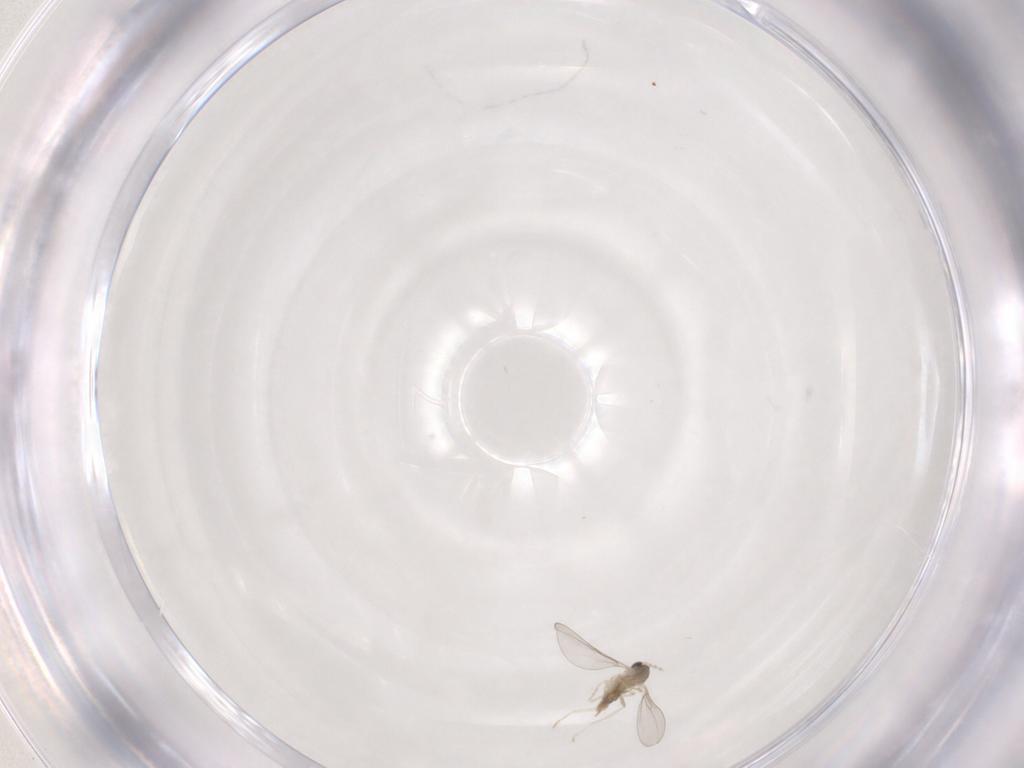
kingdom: Animalia
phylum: Arthropoda
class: Insecta
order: Diptera
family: Cecidomyiidae
